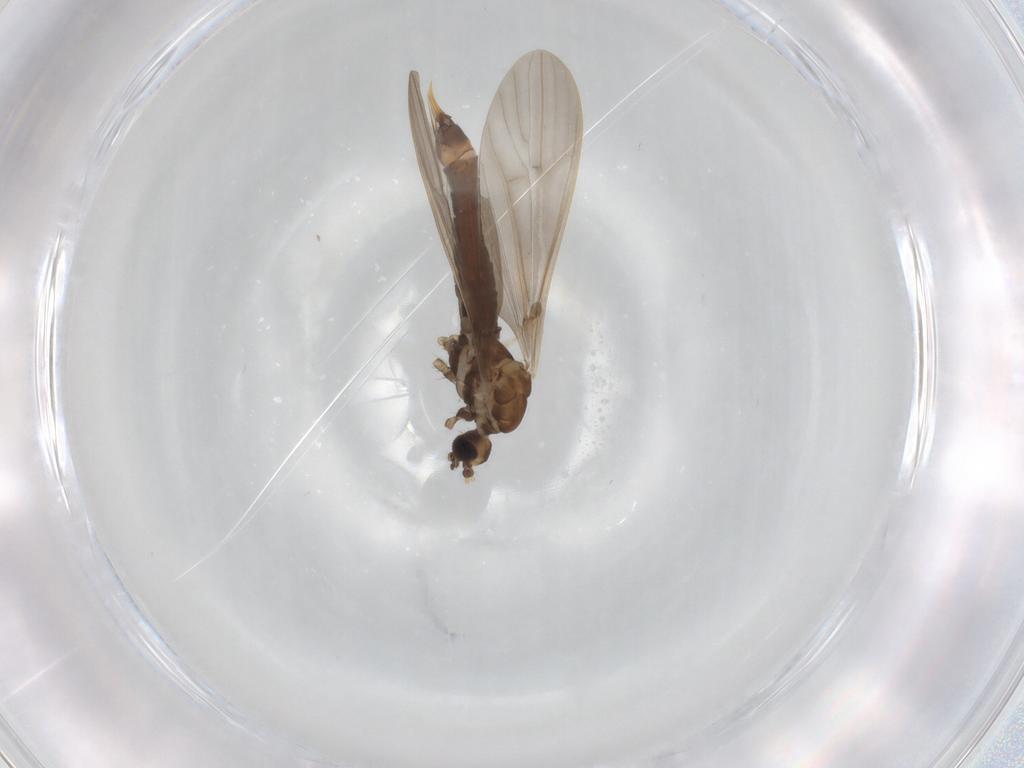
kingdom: Animalia
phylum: Arthropoda
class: Insecta
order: Diptera
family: Limoniidae
